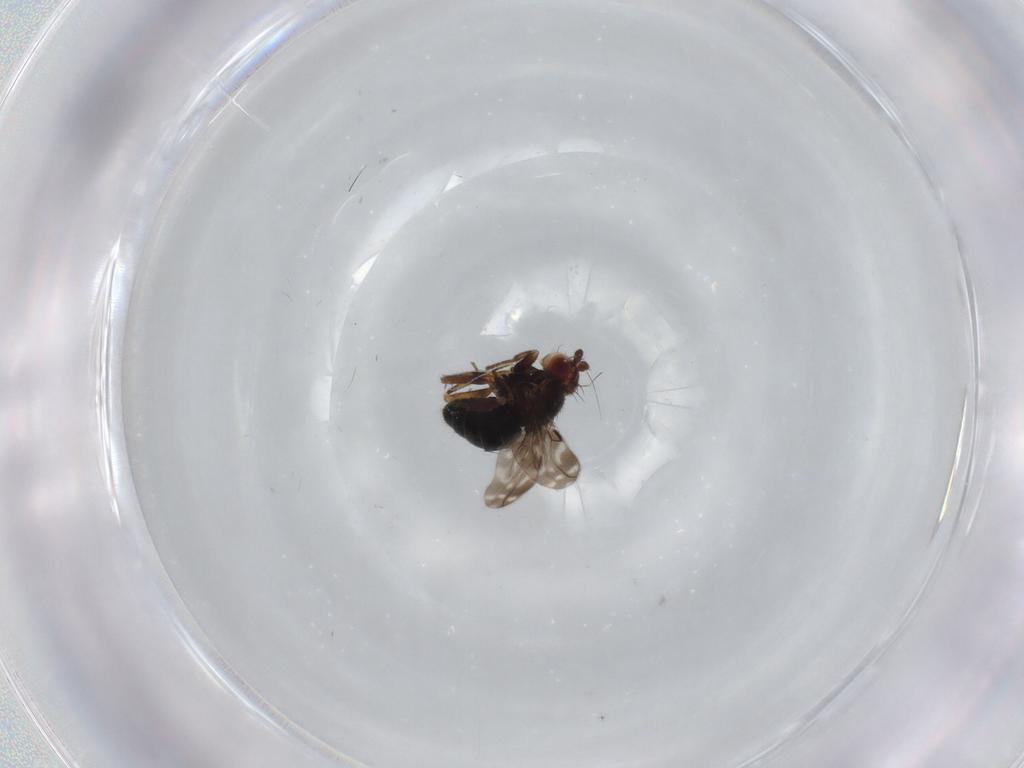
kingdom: Animalia
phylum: Arthropoda
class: Insecta
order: Diptera
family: Sphaeroceridae
